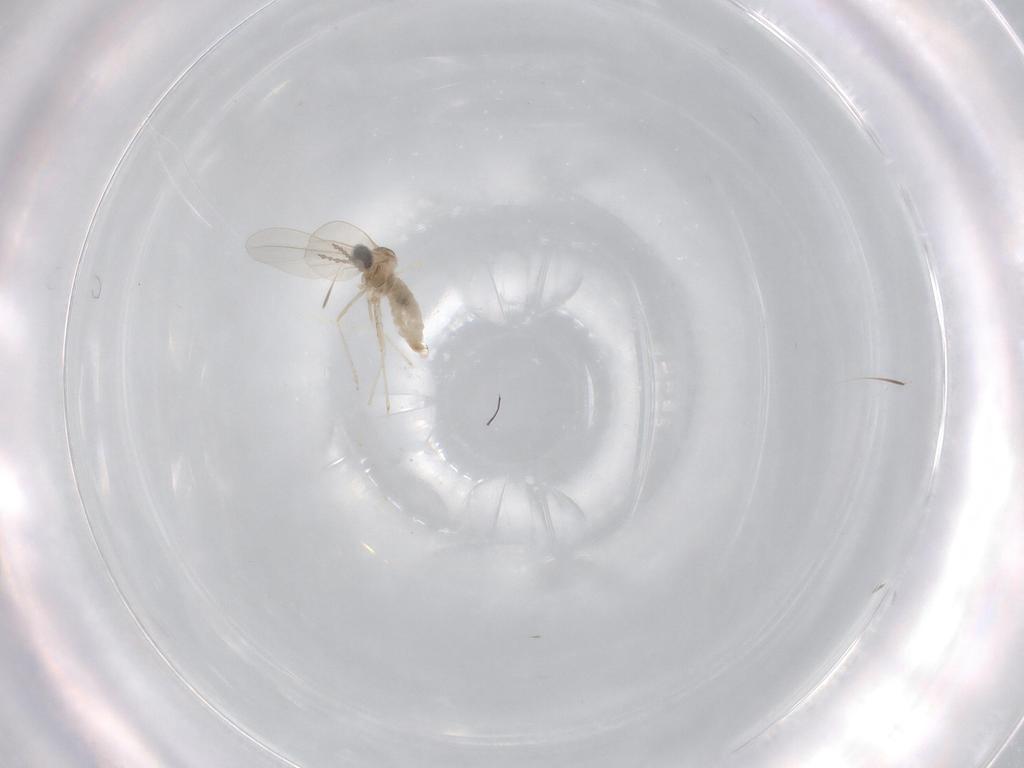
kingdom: Animalia
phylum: Arthropoda
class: Insecta
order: Diptera
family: Cecidomyiidae
